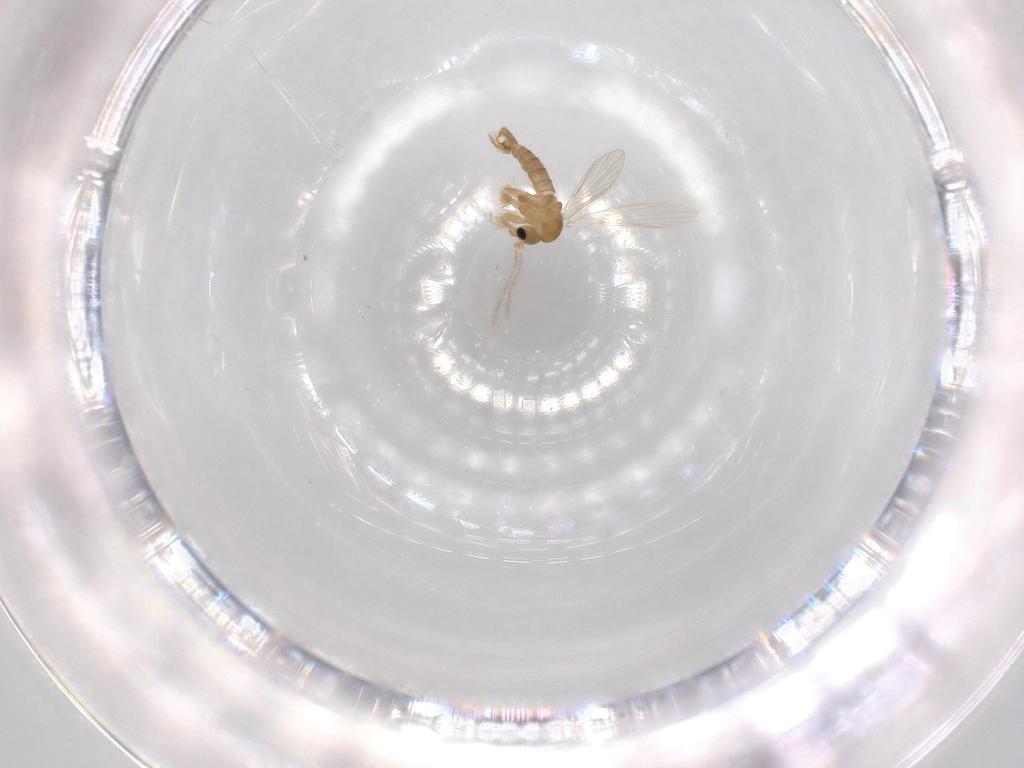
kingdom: Animalia
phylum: Arthropoda
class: Insecta
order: Diptera
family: Psychodidae
